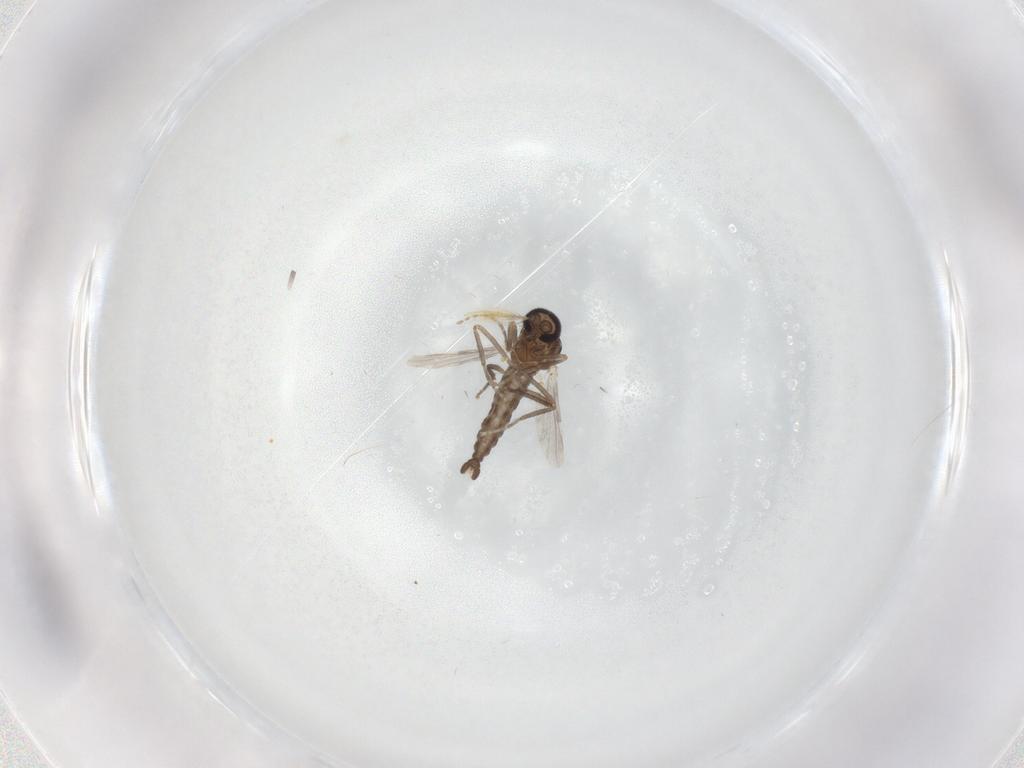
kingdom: Animalia
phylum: Arthropoda
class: Insecta
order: Diptera
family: Ceratopogonidae
